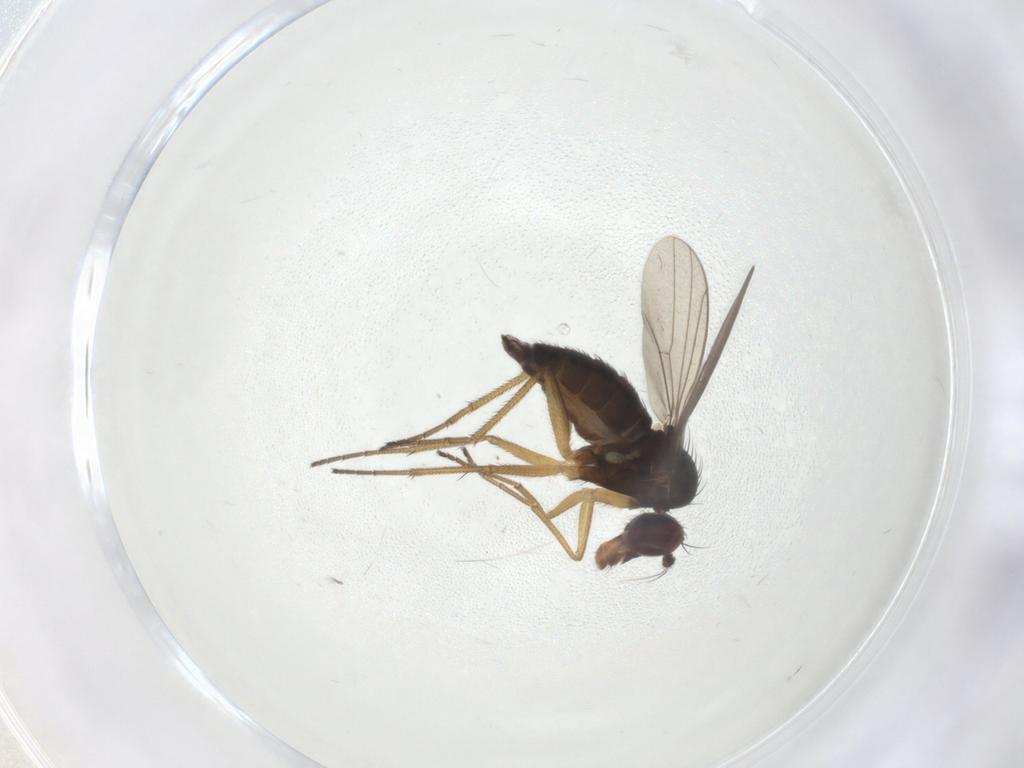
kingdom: Animalia
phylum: Arthropoda
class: Insecta
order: Diptera
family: Dolichopodidae
